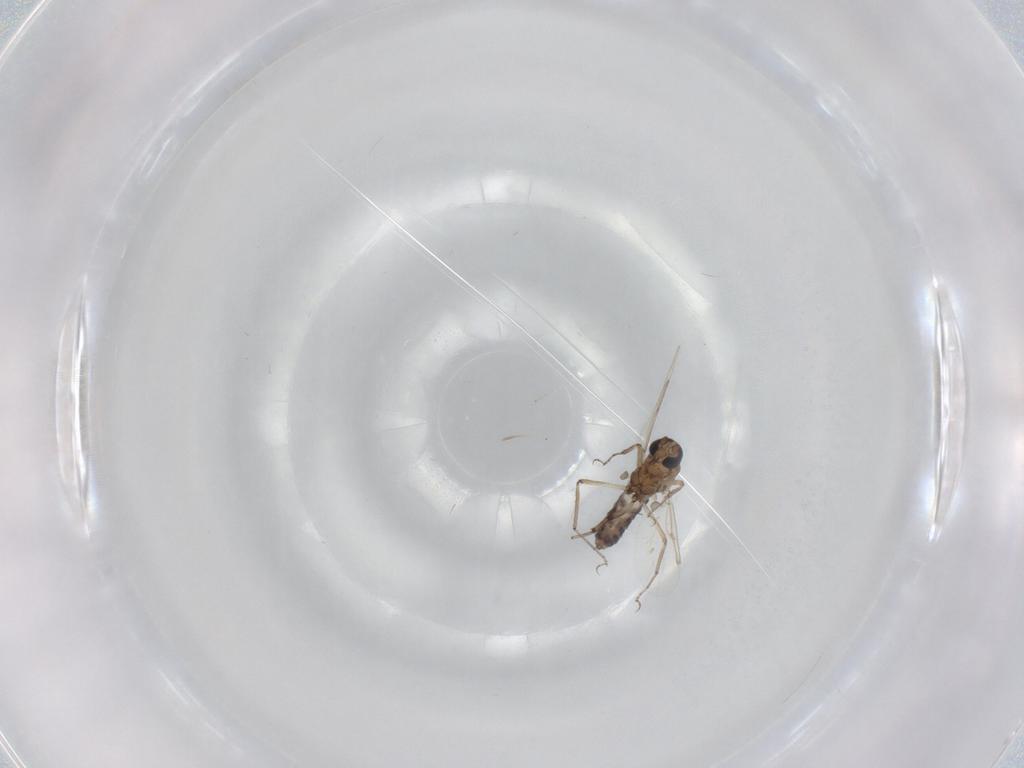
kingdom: Animalia
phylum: Arthropoda
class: Insecta
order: Diptera
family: Ceratopogonidae
